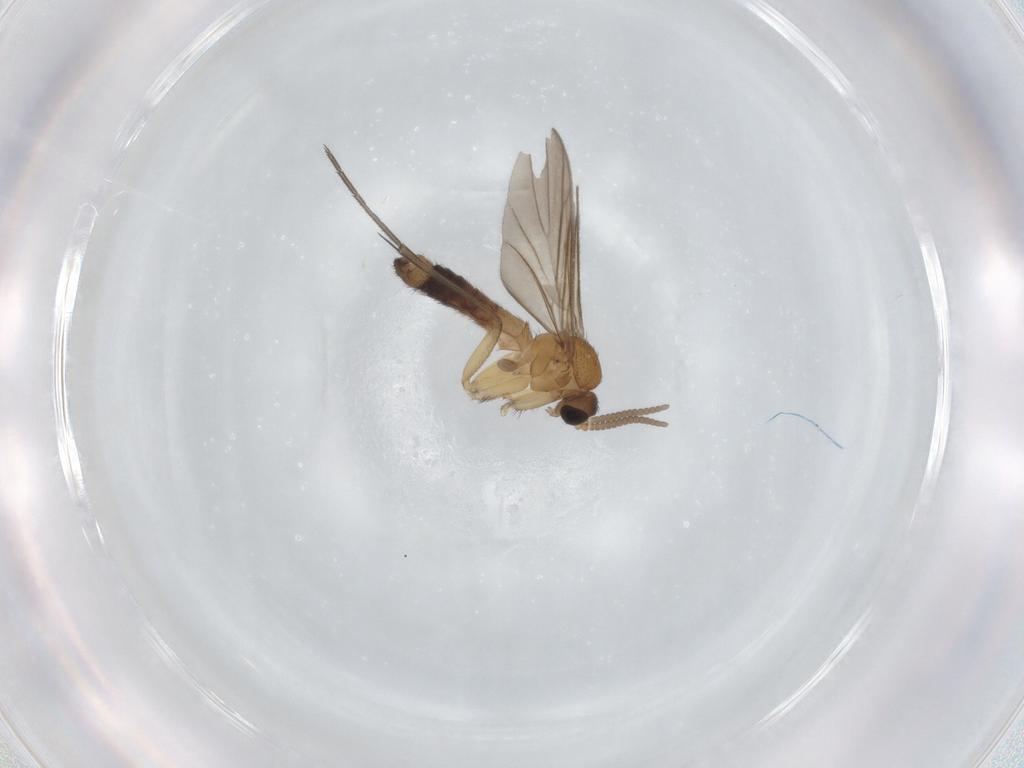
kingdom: Animalia
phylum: Arthropoda
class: Insecta
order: Diptera
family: Keroplatidae
